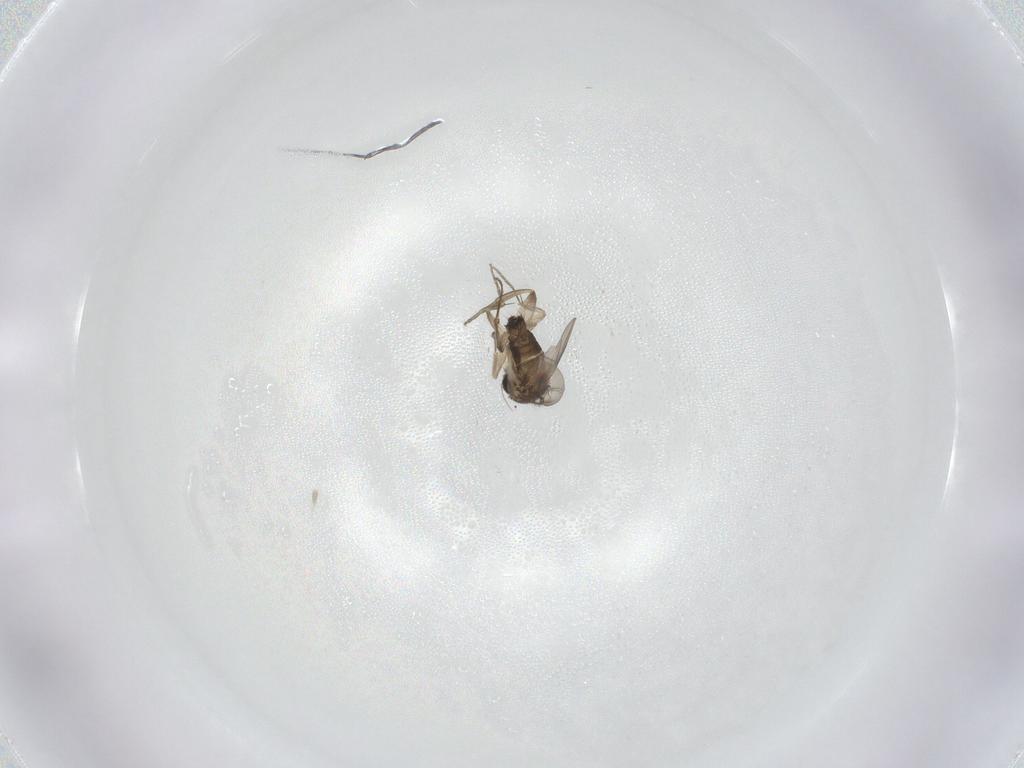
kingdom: Animalia
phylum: Arthropoda
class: Insecta
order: Diptera
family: Phoridae
